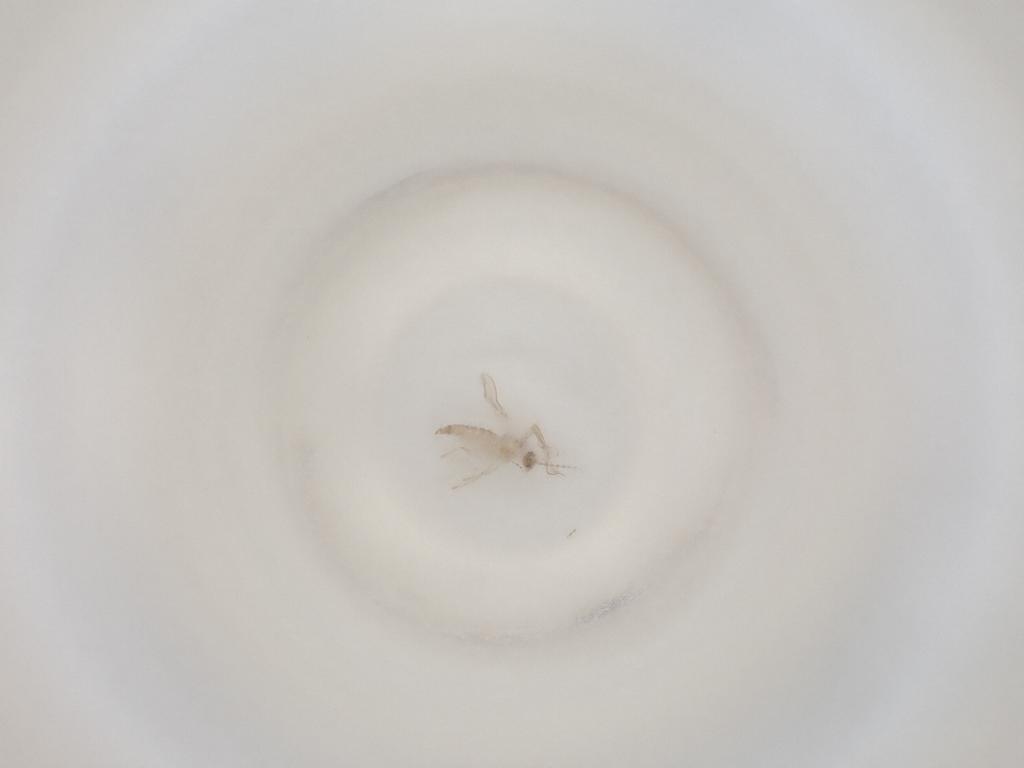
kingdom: Animalia
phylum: Arthropoda
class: Insecta
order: Diptera
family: Cecidomyiidae
